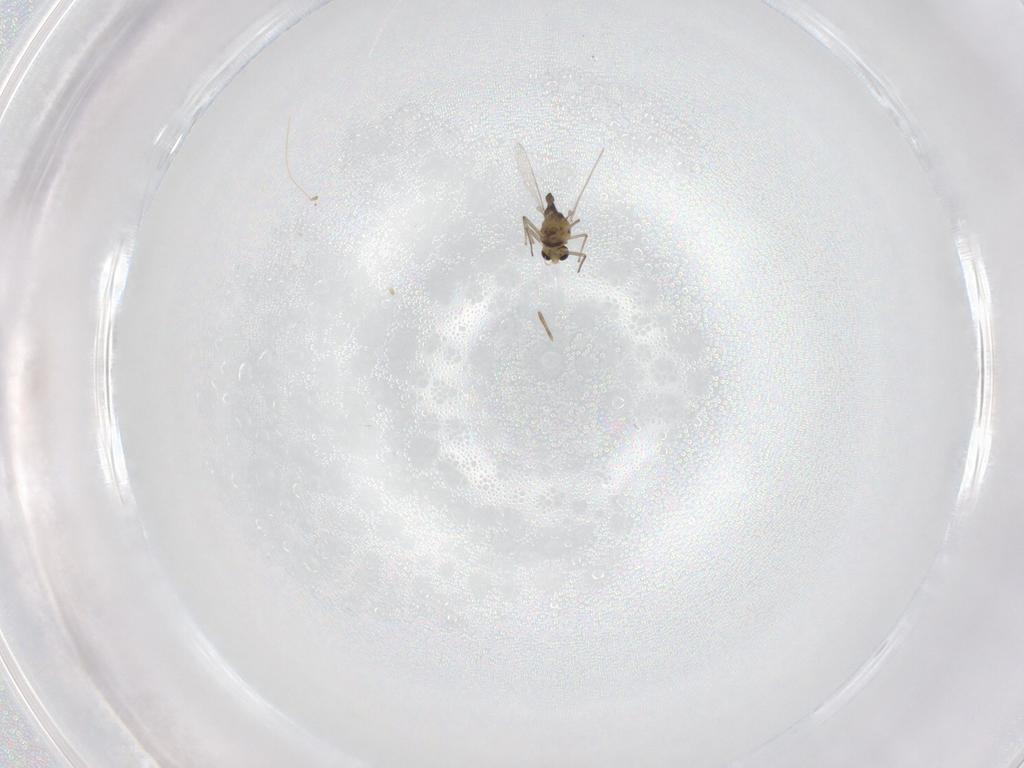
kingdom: Animalia
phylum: Arthropoda
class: Insecta
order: Diptera
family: Chironomidae
